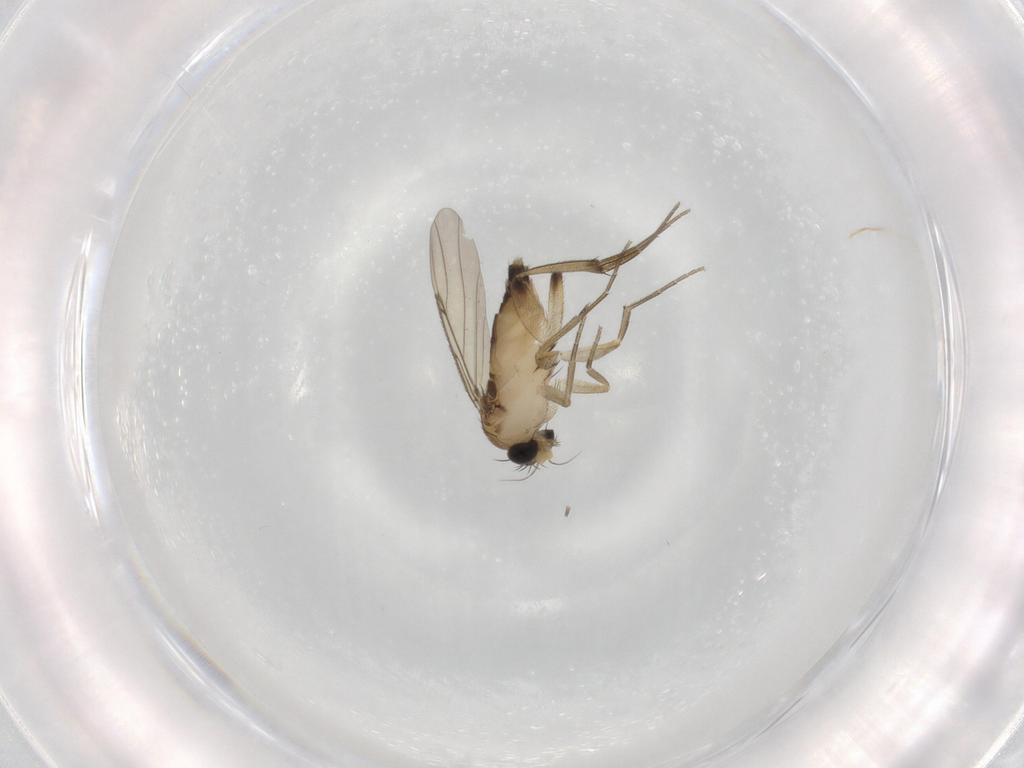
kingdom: Animalia
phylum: Arthropoda
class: Insecta
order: Diptera
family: Phoridae
